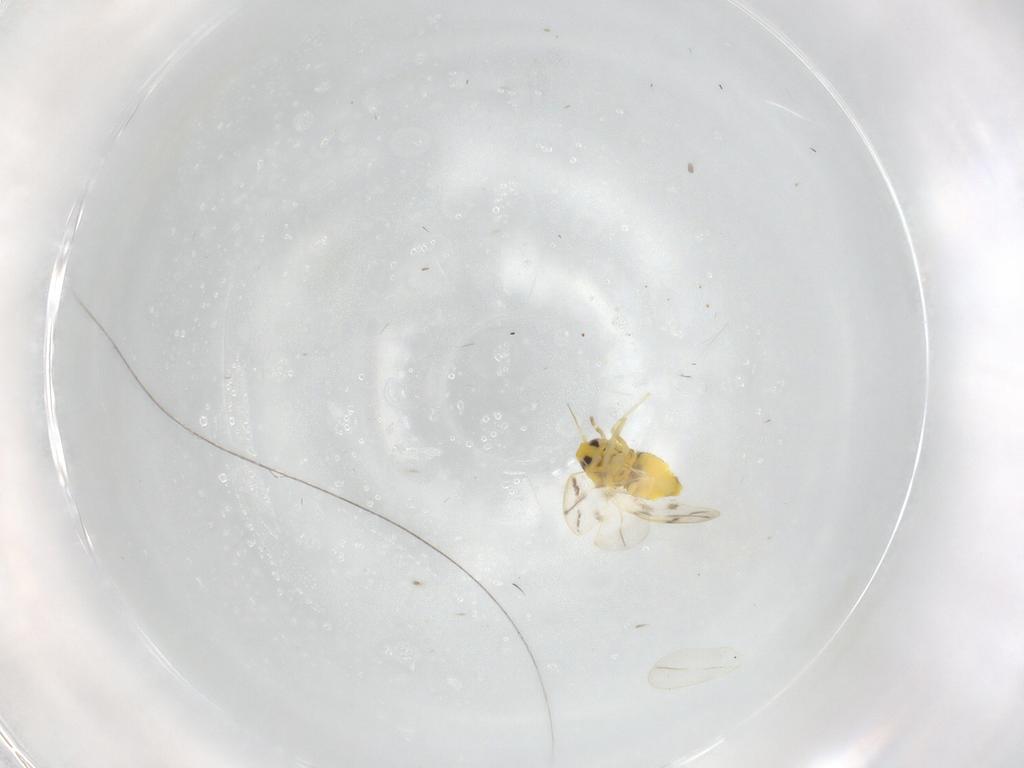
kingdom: Animalia
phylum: Arthropoda
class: Insecta
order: Hemiptera
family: Aleyrodidae
